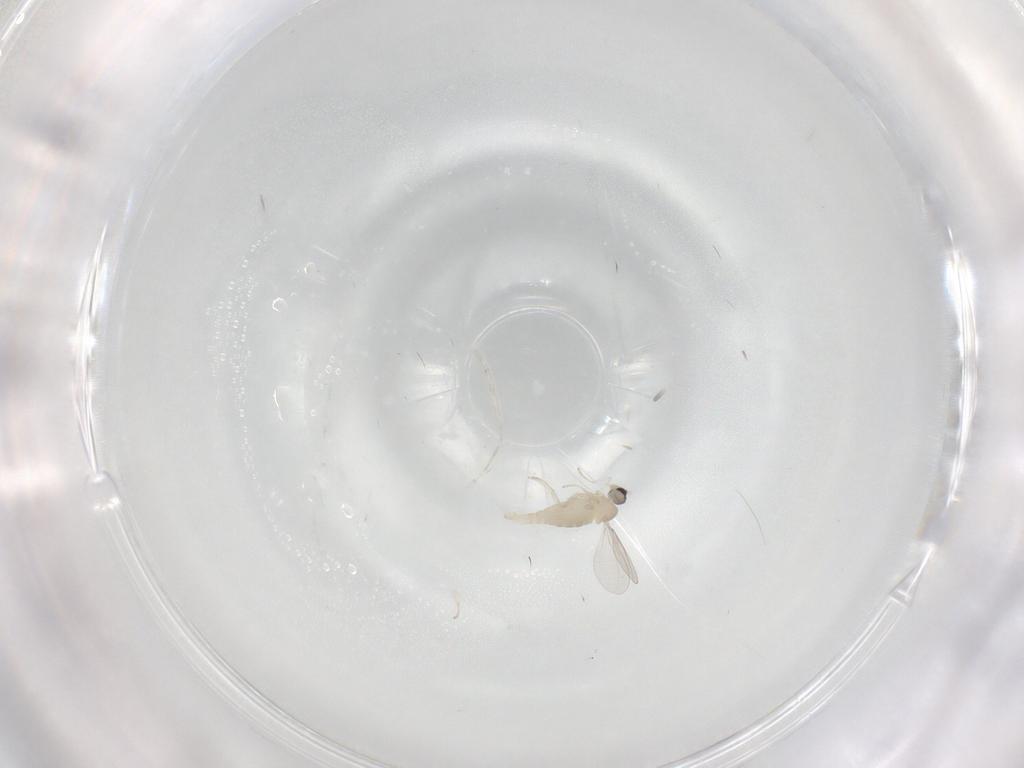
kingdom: Animalia
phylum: Arthropoda
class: Insecta
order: Diptera
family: Cecidomyiidae
